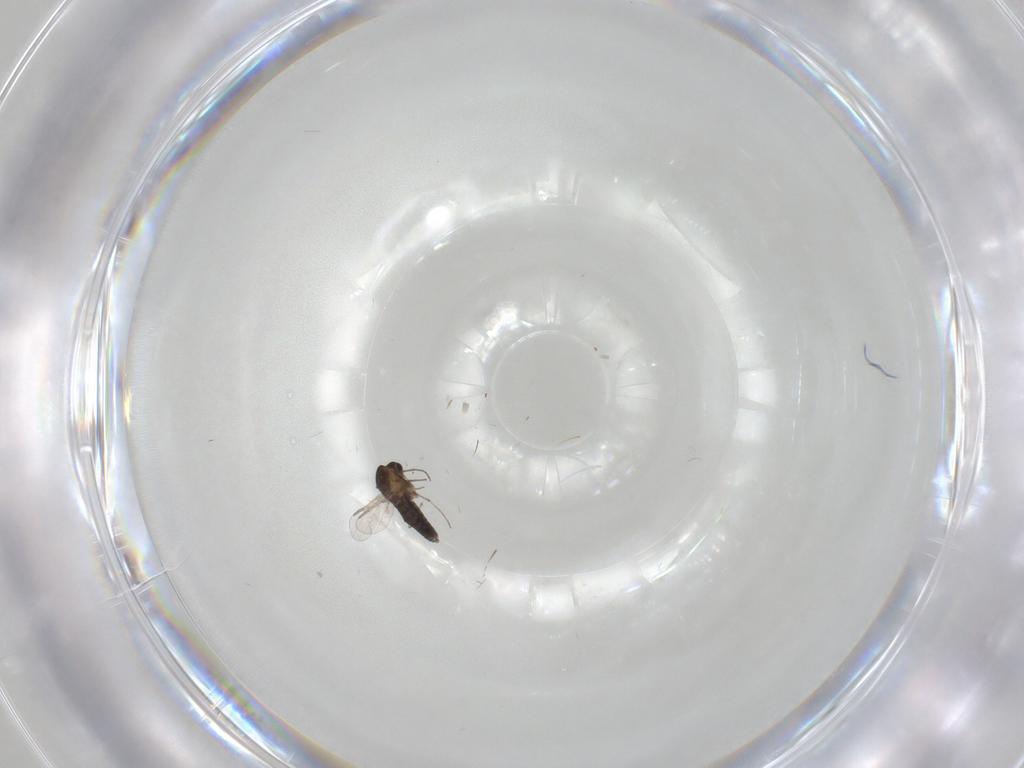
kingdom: Animalia
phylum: Arthropoda
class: Insecta
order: Diptera
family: Chironomidae
